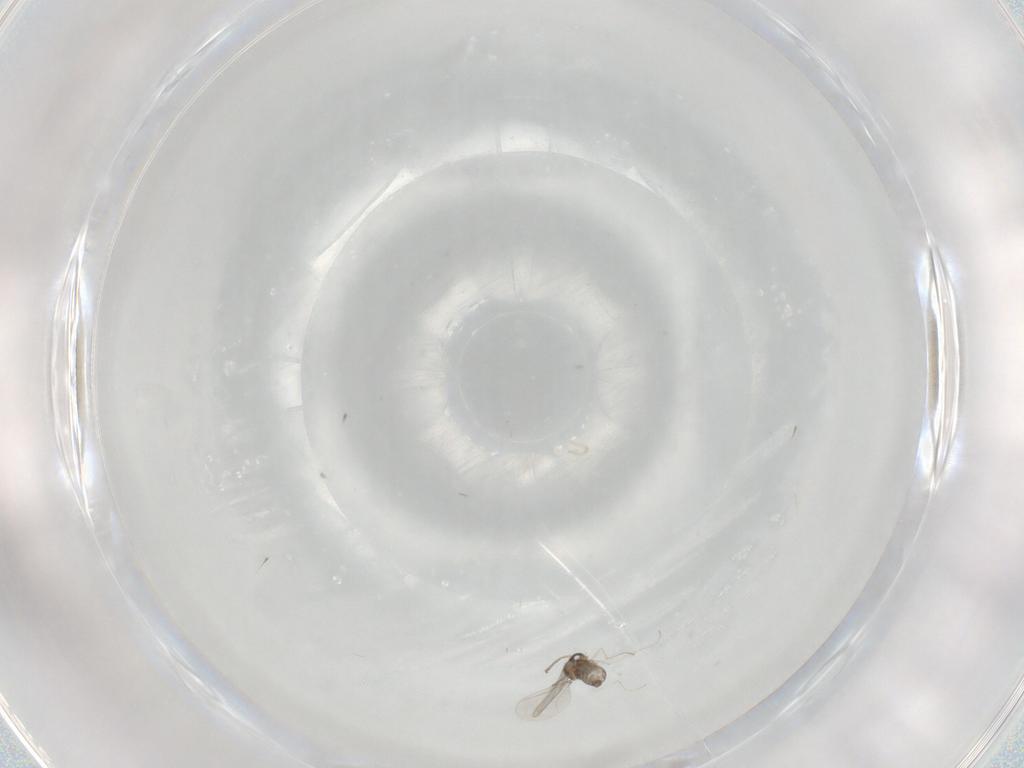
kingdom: Animalia
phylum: Arthropoda
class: Insecta
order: Diptera
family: Cecidomyiidae
